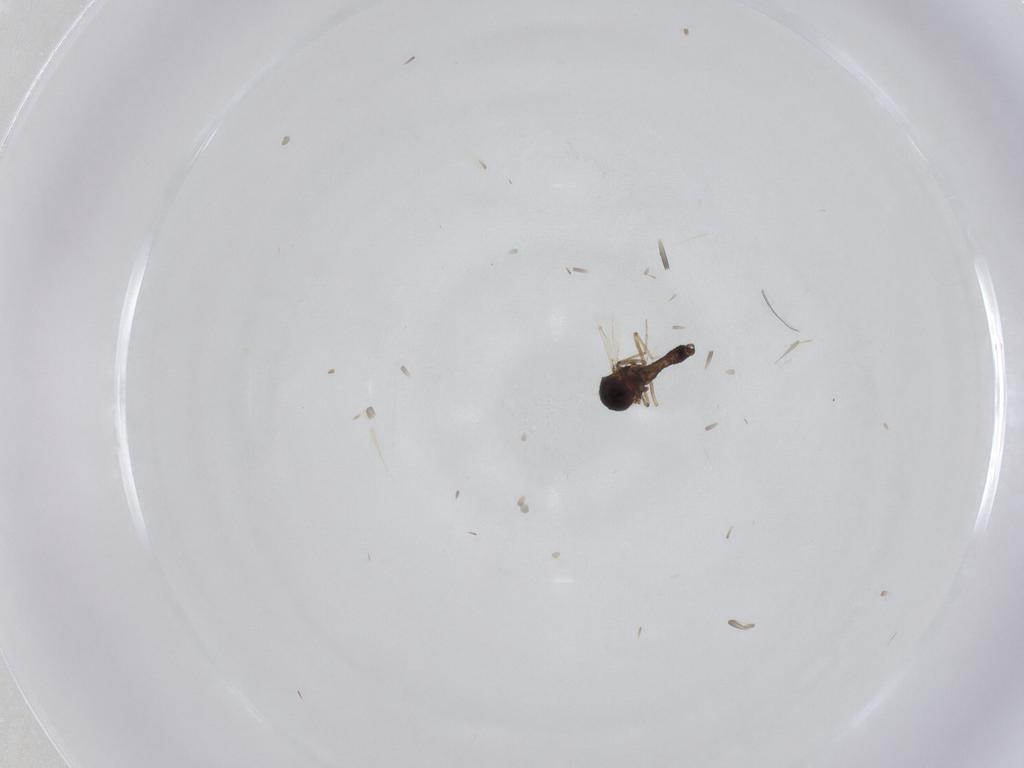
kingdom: Animalia
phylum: Arthropoda
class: Insecta
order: Diptera
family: Ceratopogonidae
